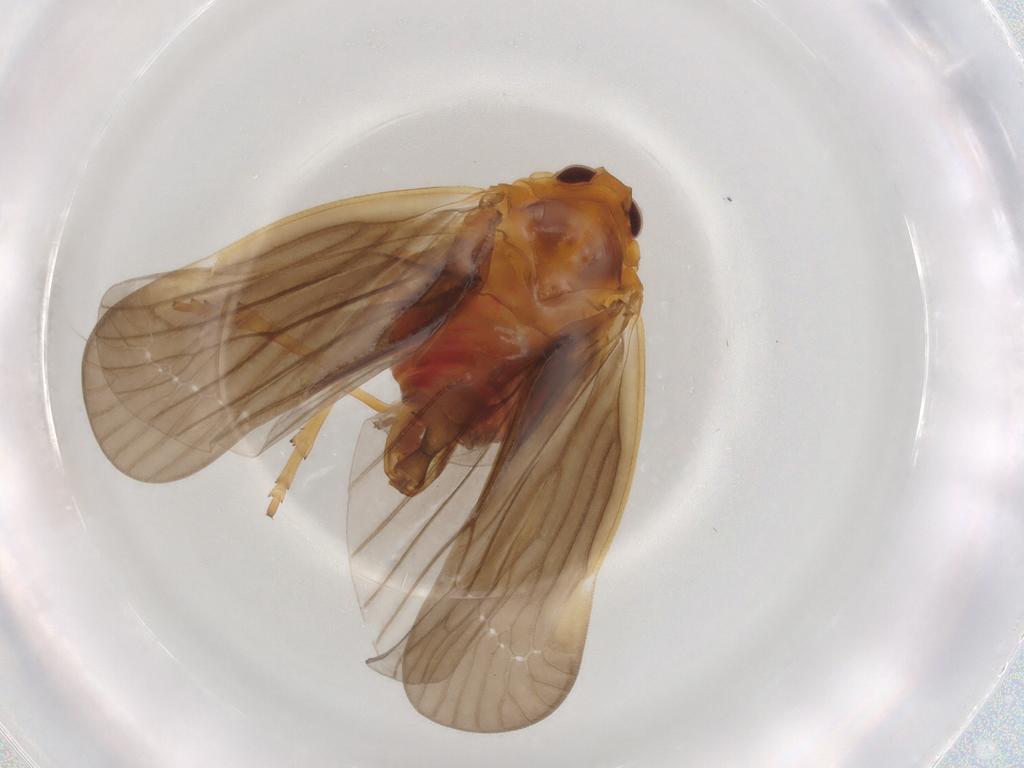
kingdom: Animalia
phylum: Arthropoda
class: Insecta
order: Hemiptera
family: Derbidae
